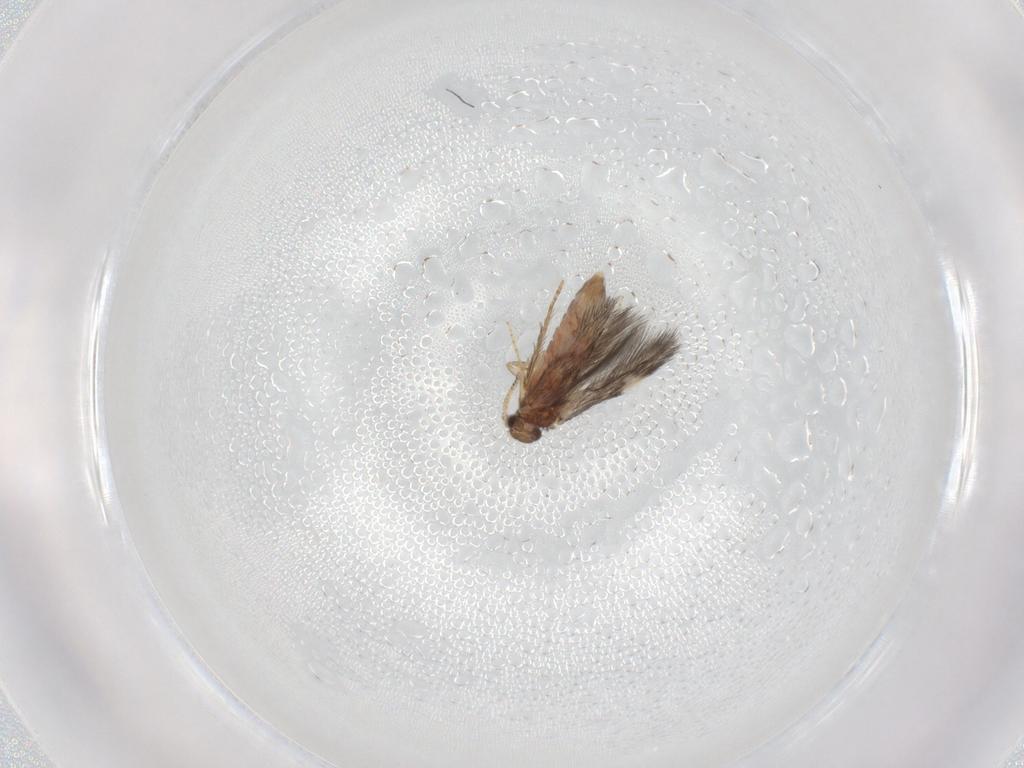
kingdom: Animalia
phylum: Arthropoda
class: Insecta
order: Trichoptera
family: Hydroptilidae
